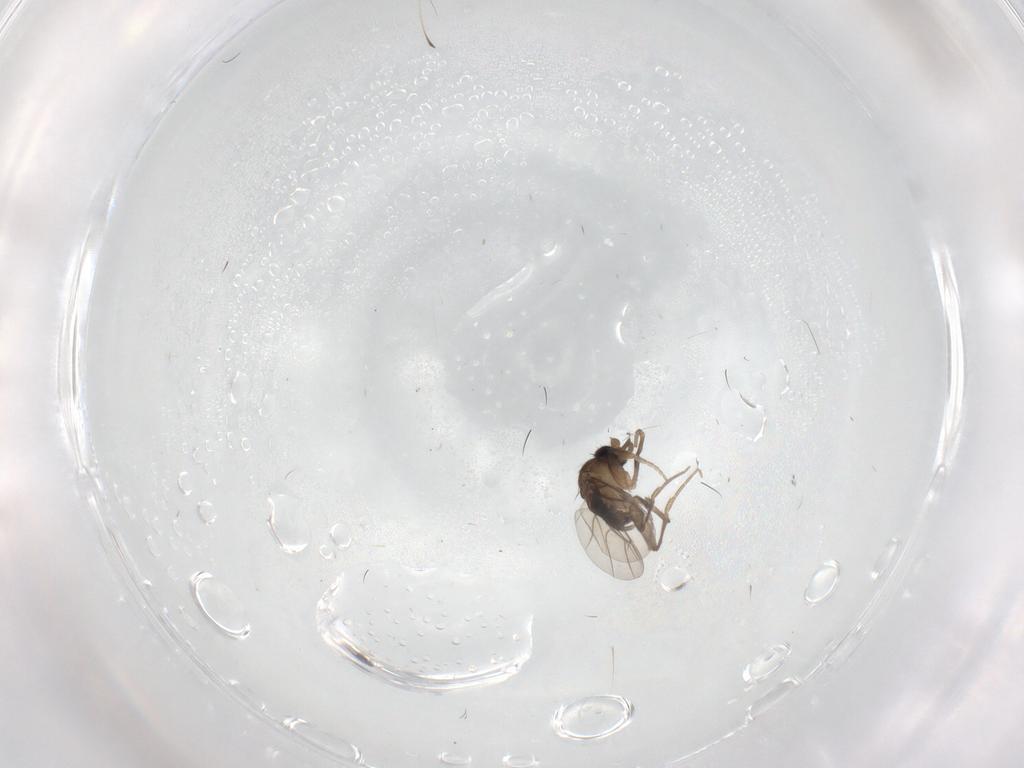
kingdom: Animalia
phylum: Arthropoda
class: Insecta
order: Diptera
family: Phoridae
